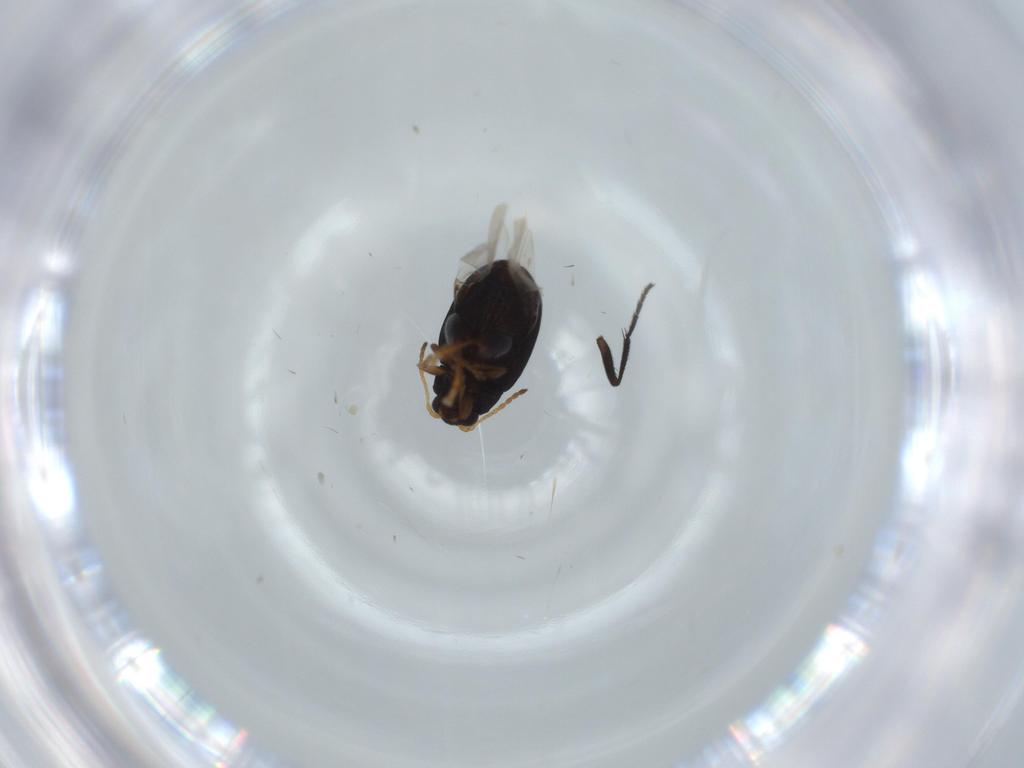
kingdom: Animalia
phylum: Arthropoda
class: Insecta
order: Coleoptera
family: Chrysomelidae
